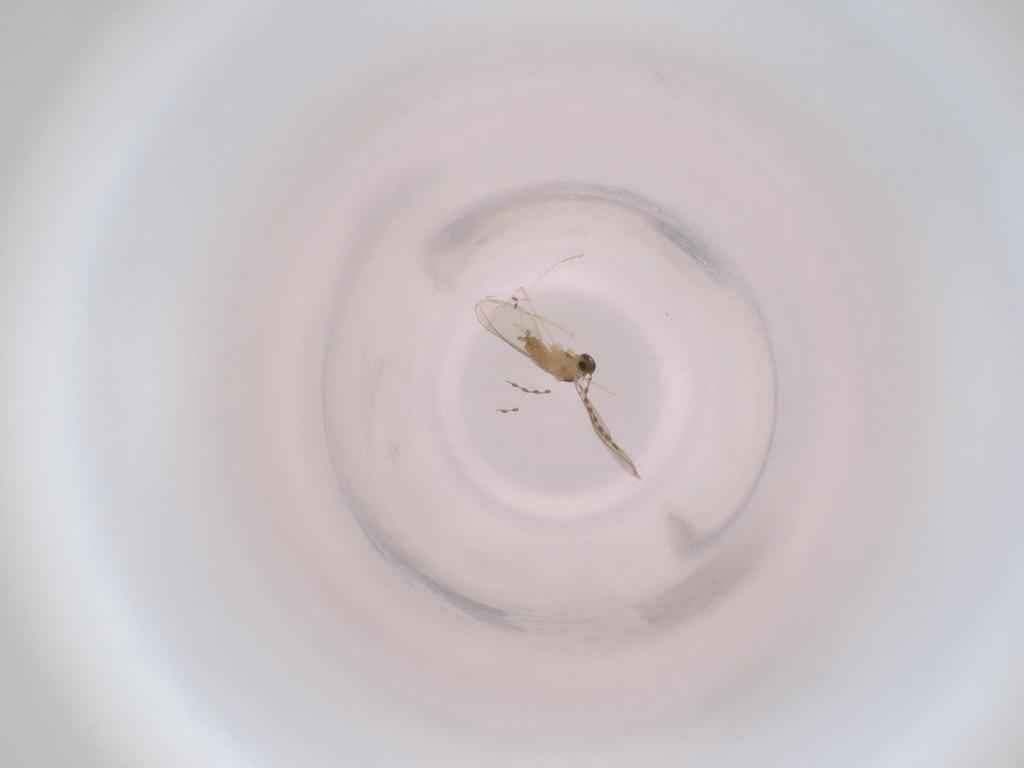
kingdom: Animalia
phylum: Arthropoda
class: Insecta
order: Diptera
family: Cecidomyiidae
